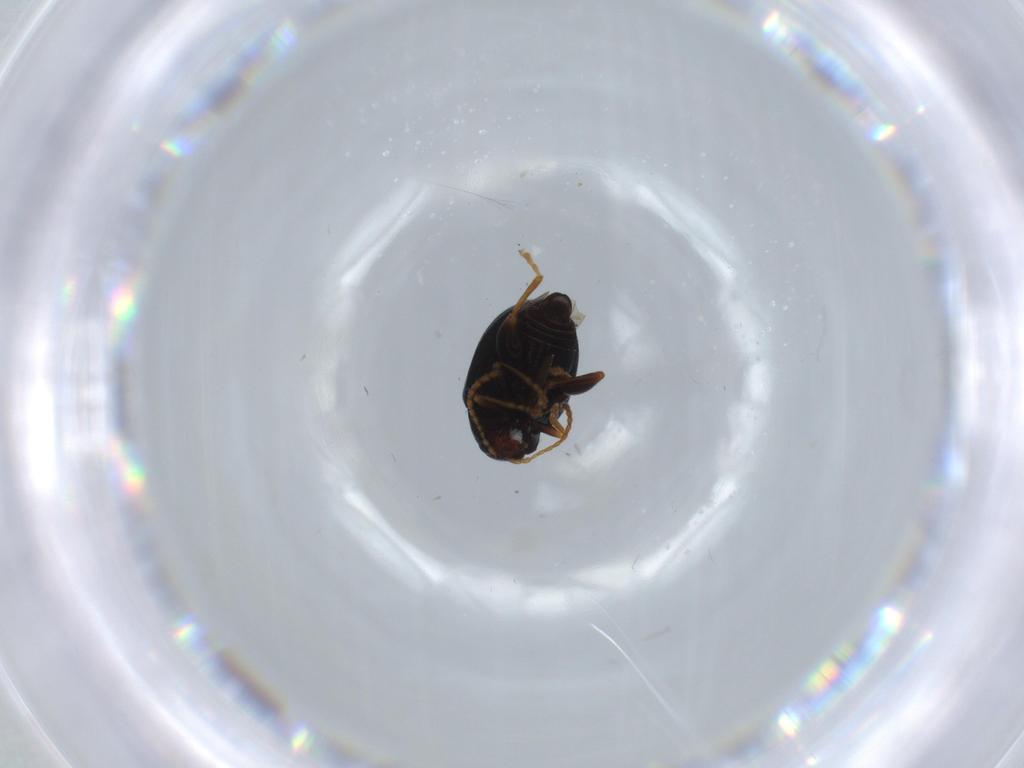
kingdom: Animalia
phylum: Arthropoda
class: Insecta
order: Coleoptera
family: Chrysomelidae
